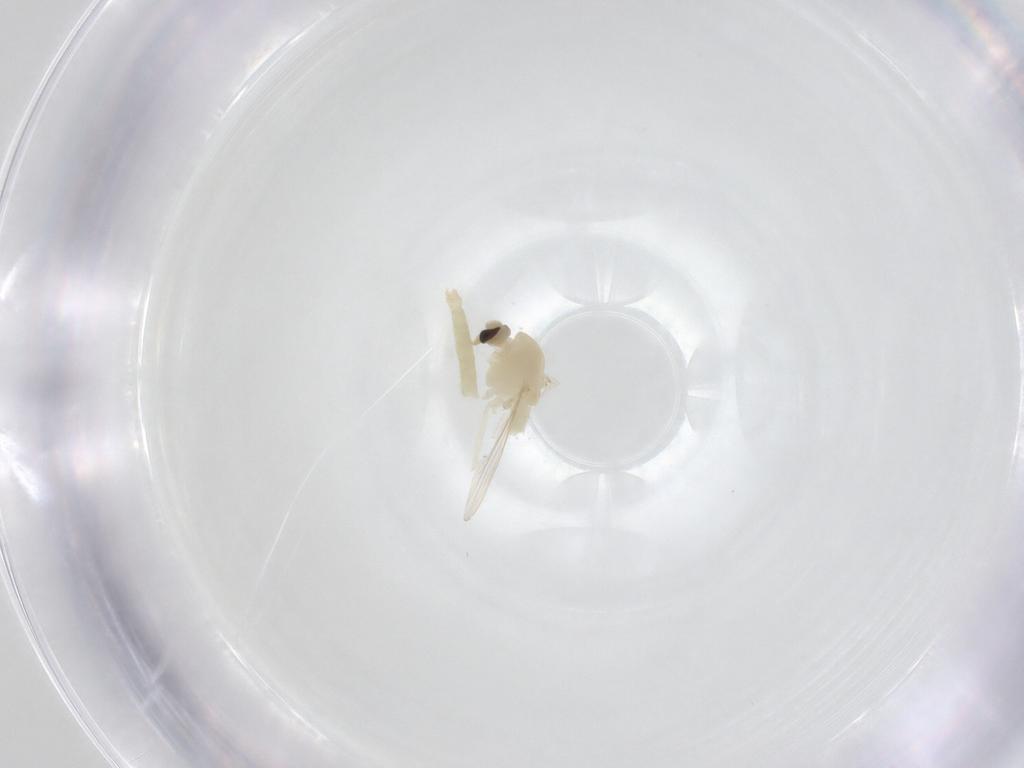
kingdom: Animalia
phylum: Arthropoda
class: Insecta
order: Diptera
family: Chironomidae
